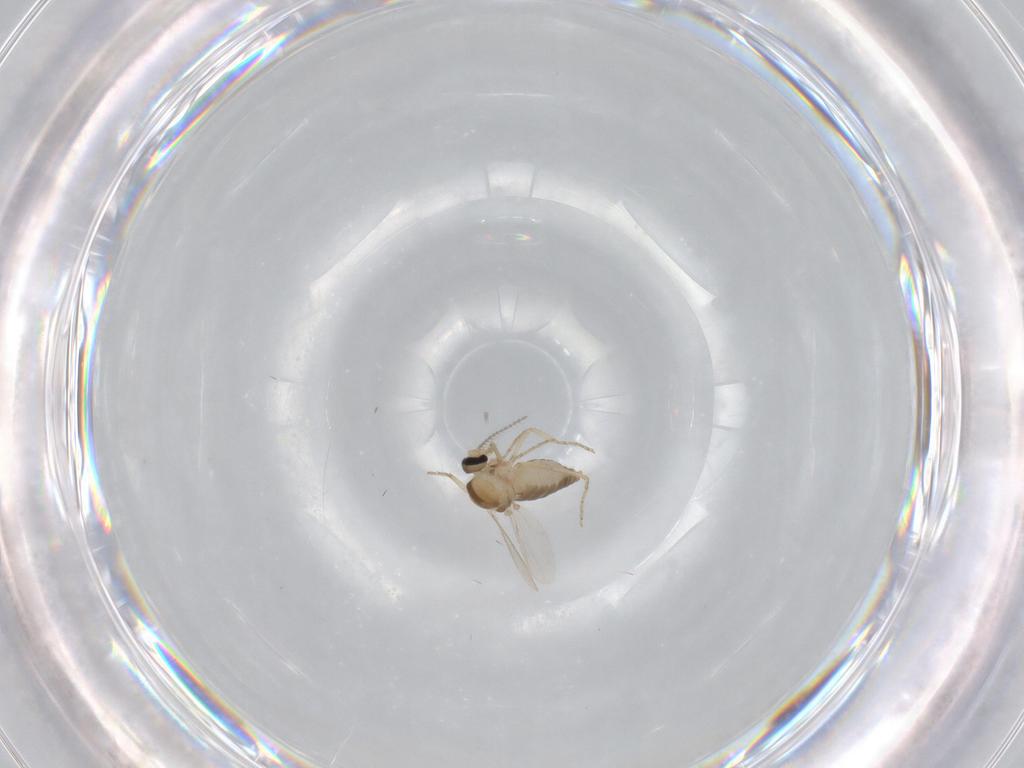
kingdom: Animalia
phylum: Arthropoda
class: Insecta
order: Diptera
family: Ceratopogonidae
